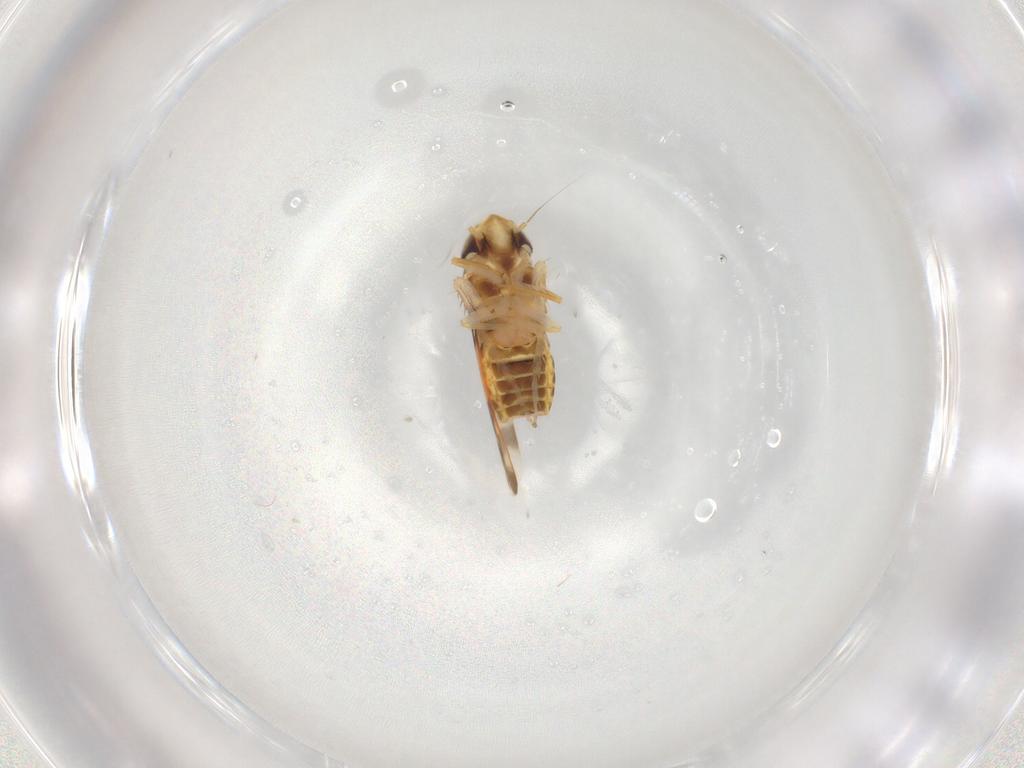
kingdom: Animalia
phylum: Arthropoda
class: Insecta
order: Hemiptera
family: Cicadellidae
